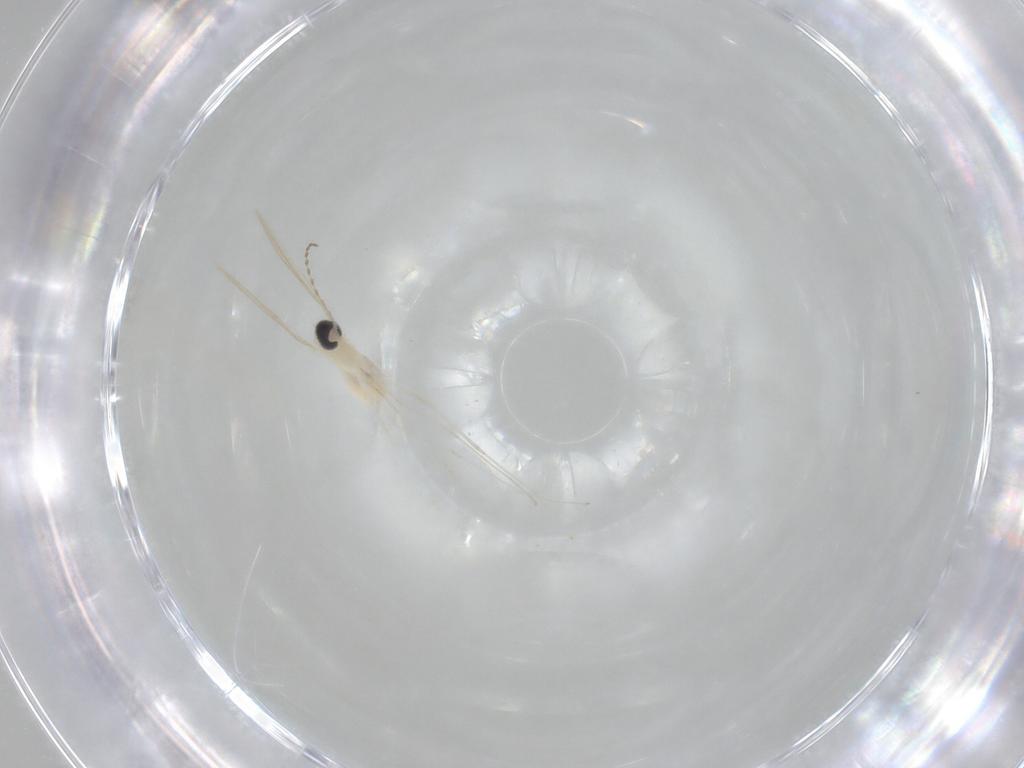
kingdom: Animalia
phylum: Arthropoda
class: Insecta
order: Diptera
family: Cecidomyiidae
